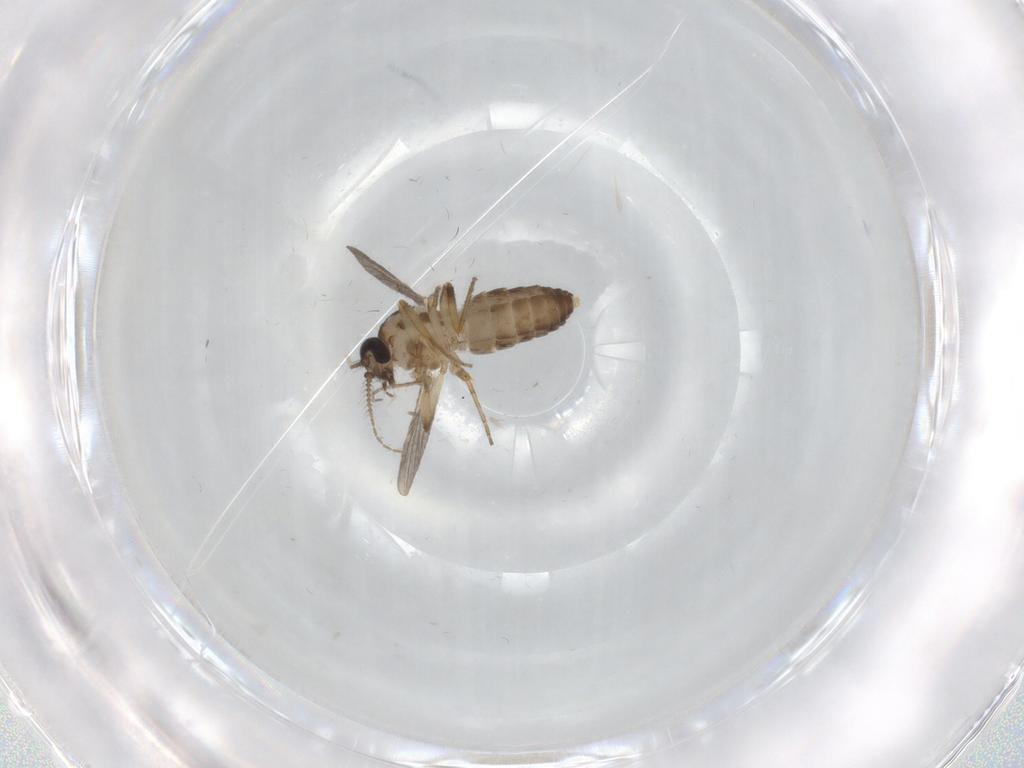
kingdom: Animalia
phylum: Arthropoda
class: Insecta
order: Diptera
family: Ceratopogonidae
